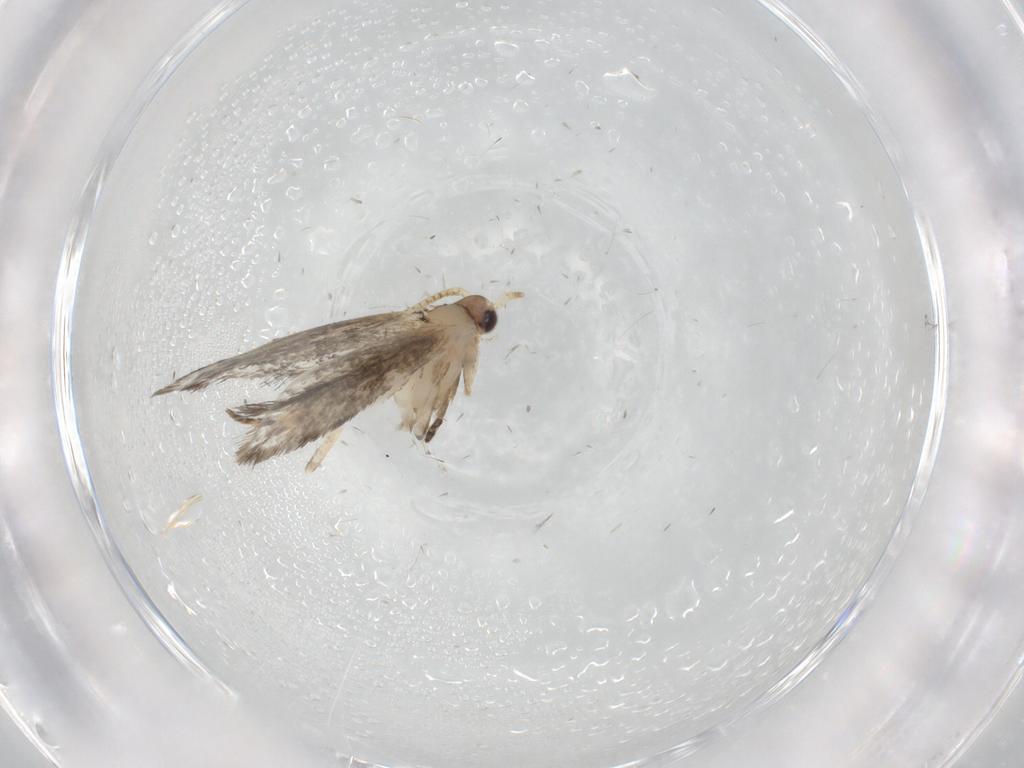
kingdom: Animalia
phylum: Arthropoda
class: Insecta
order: Lepidoptera
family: Tineidae
